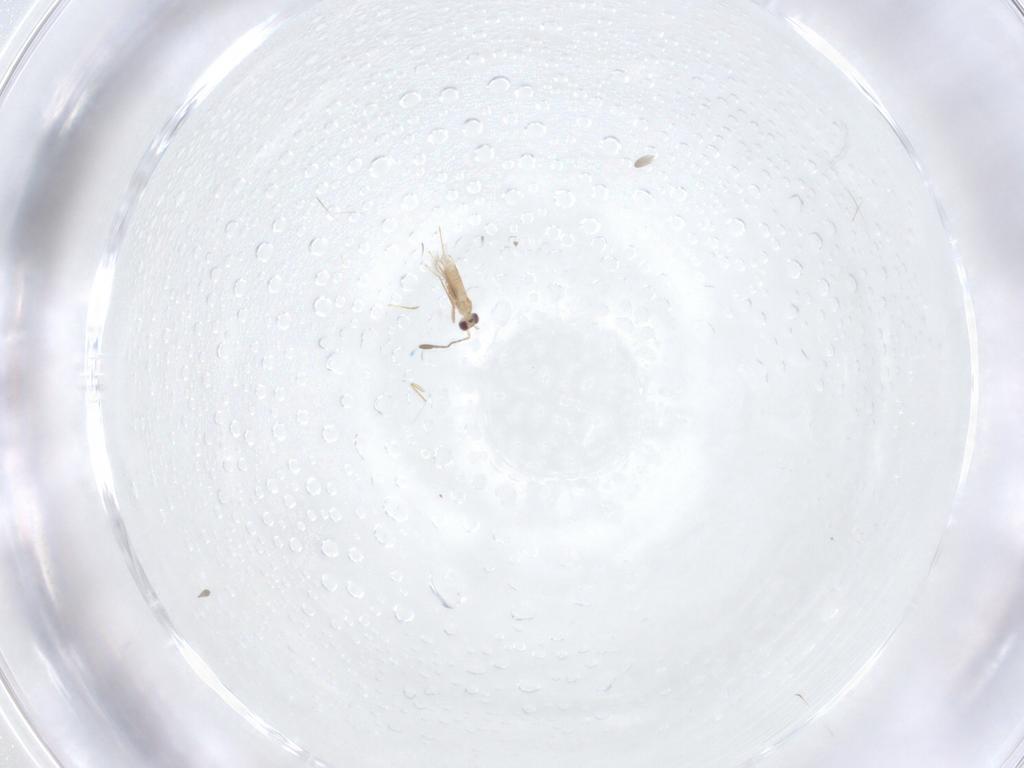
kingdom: Animalia
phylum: Arthropoda
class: Insecta
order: Hymenoptera
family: Mymaridae
